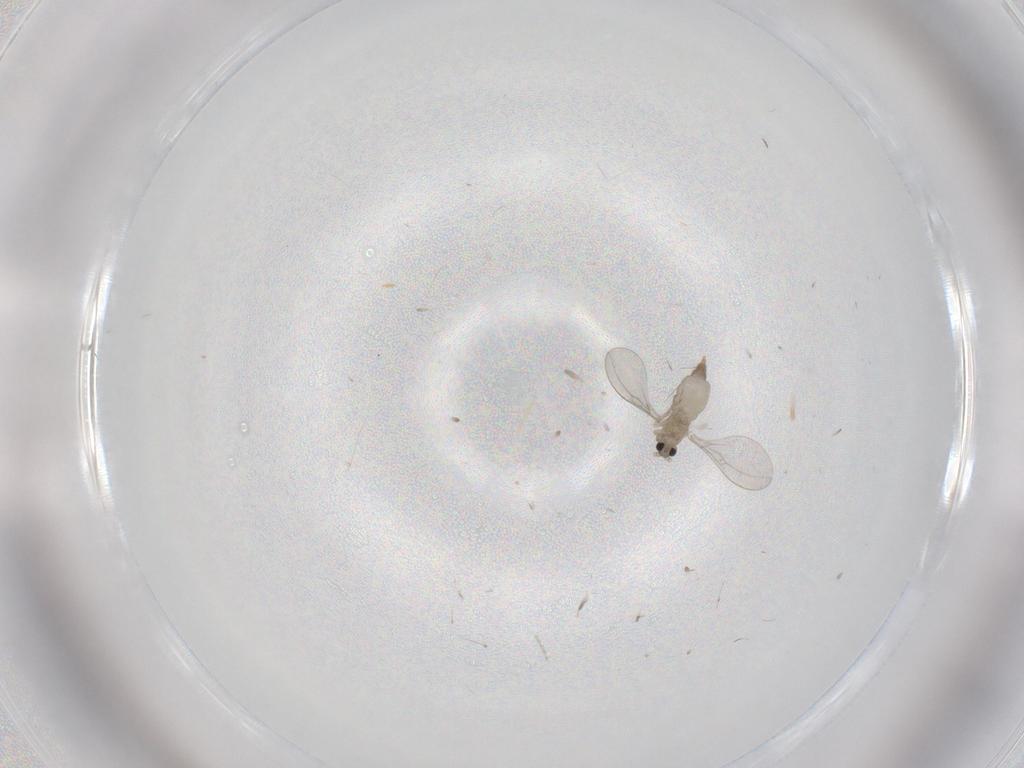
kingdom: Animalia
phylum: Arthropoda
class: Insecta
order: Diptera
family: Cecidomyiidae
